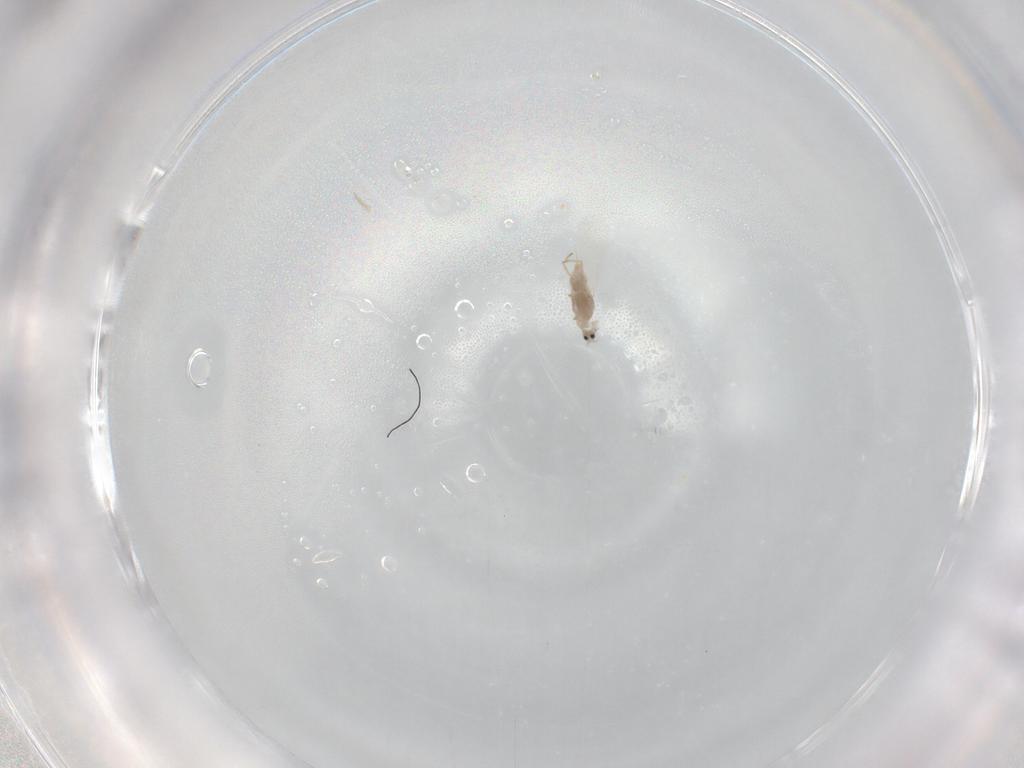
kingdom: Animalia
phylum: Arthropoda
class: Insecta
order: Hemiptera
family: Coccoidea_incertae_sedis
